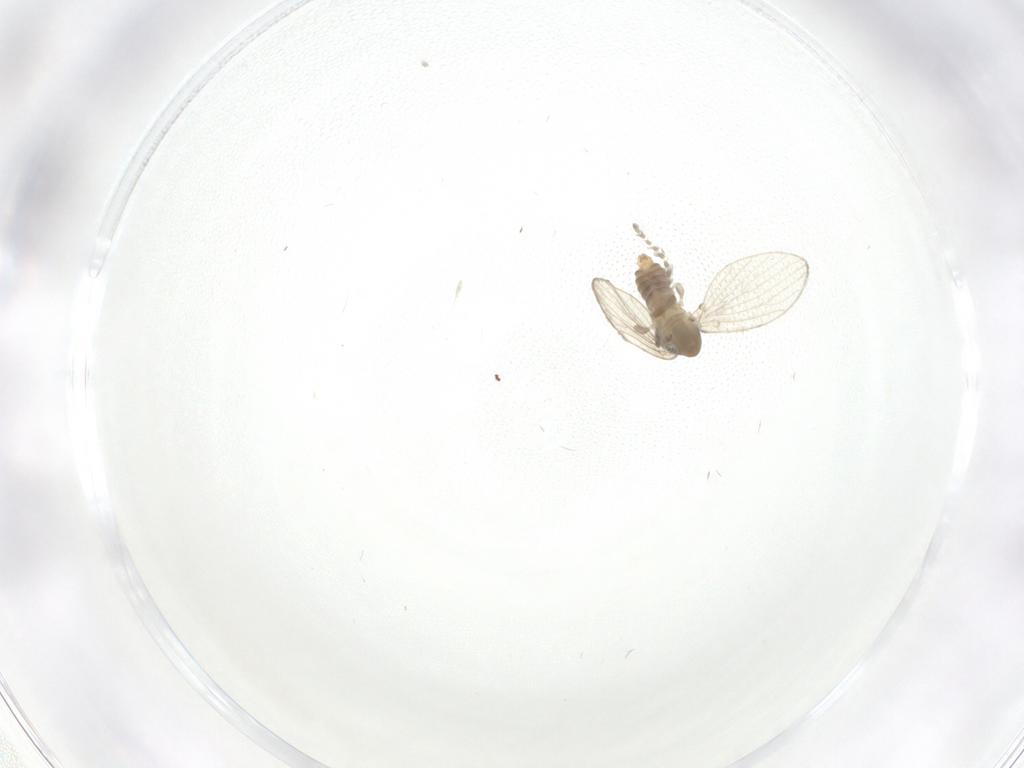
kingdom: Animalia
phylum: Arthropoda
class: Insecta
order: Diptera
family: Psychodidae
